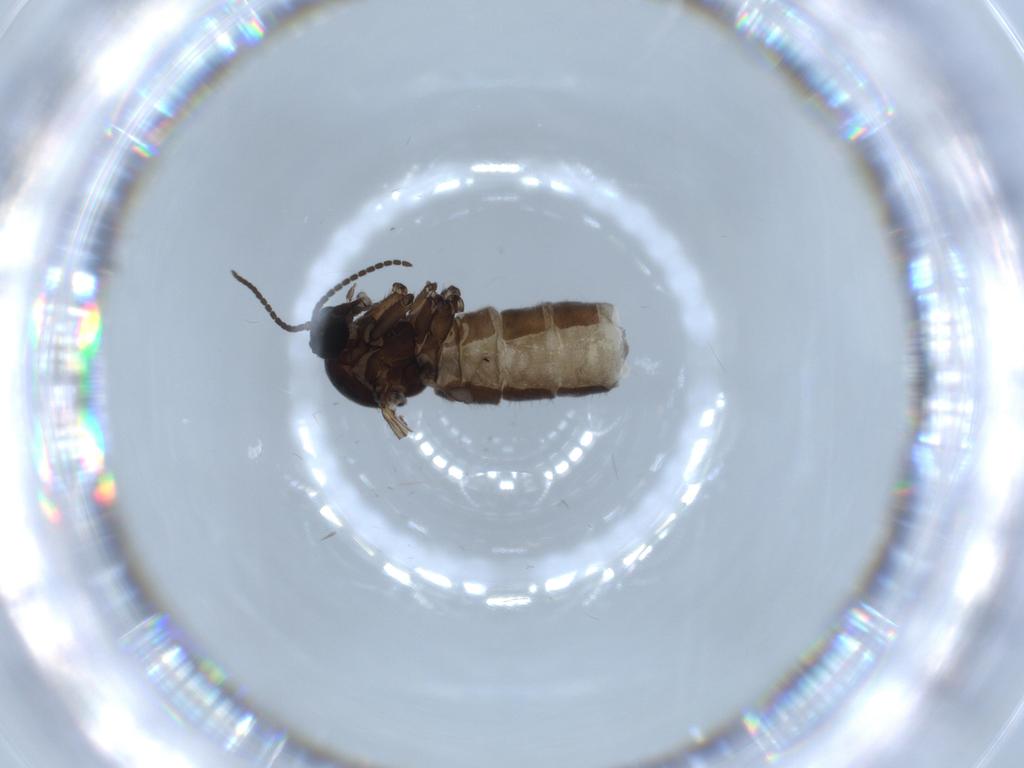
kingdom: Animalia
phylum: Arthropoda
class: Insecta
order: Diptera
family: Sciaridae
